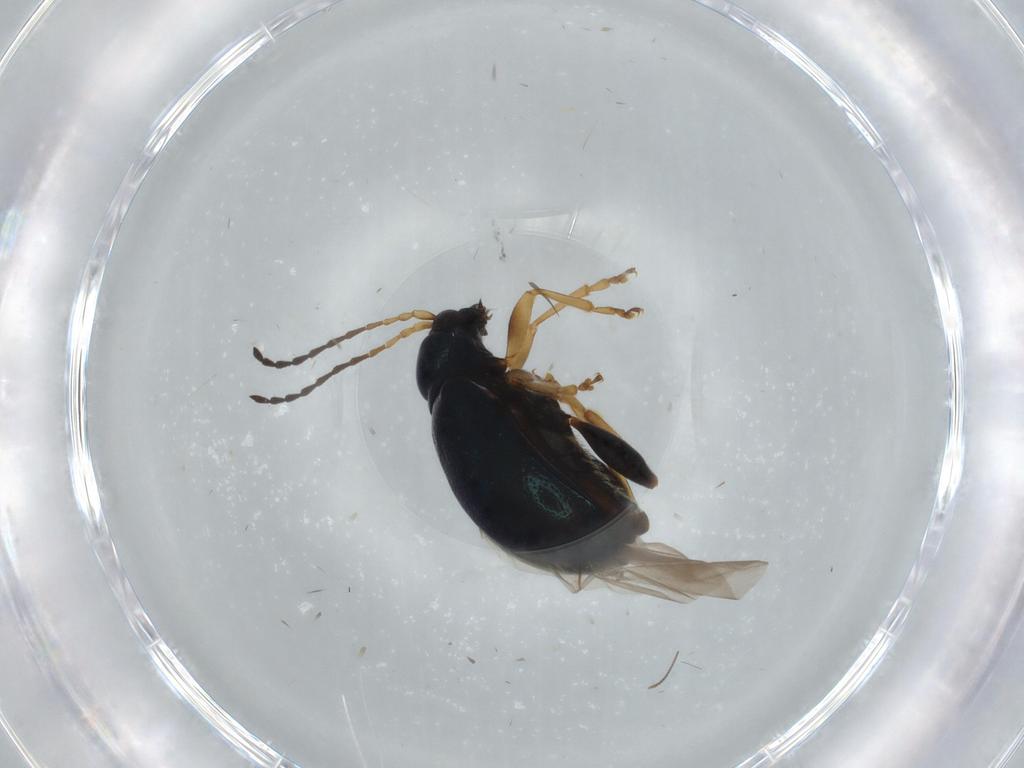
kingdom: Animalia
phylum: Arthropoda
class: Insecta
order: Coleoptera
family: Chrysomelidae
